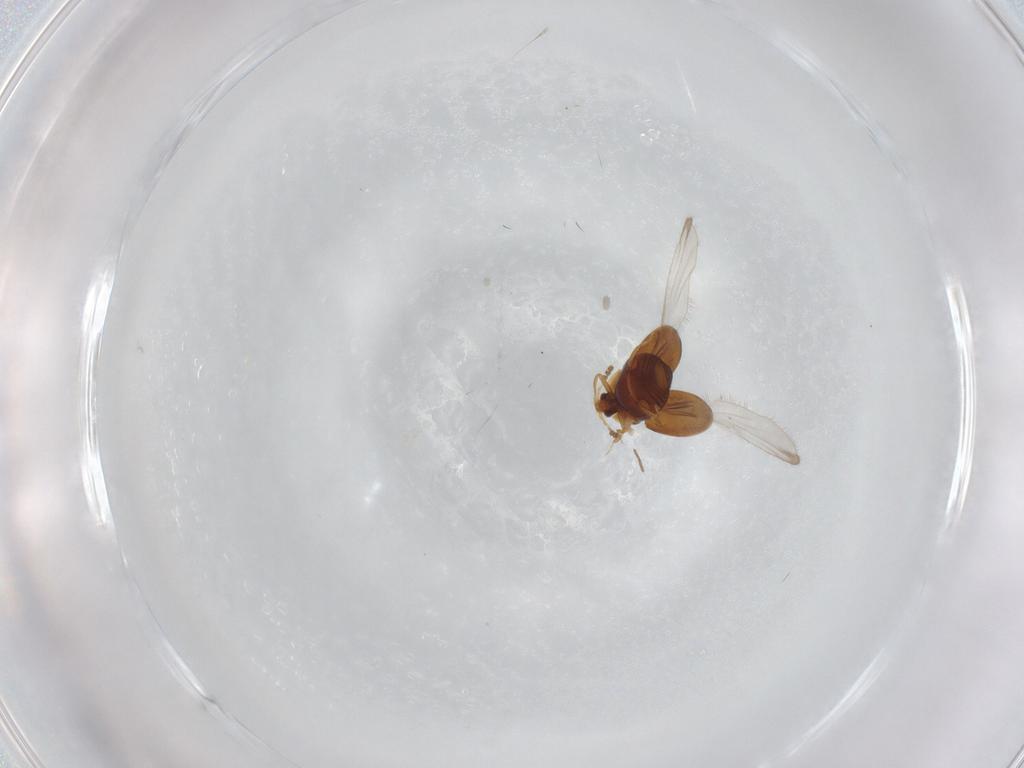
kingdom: Animalia
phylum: Arthropoda
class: Insecta
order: Coleoptera
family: Corylophidae
